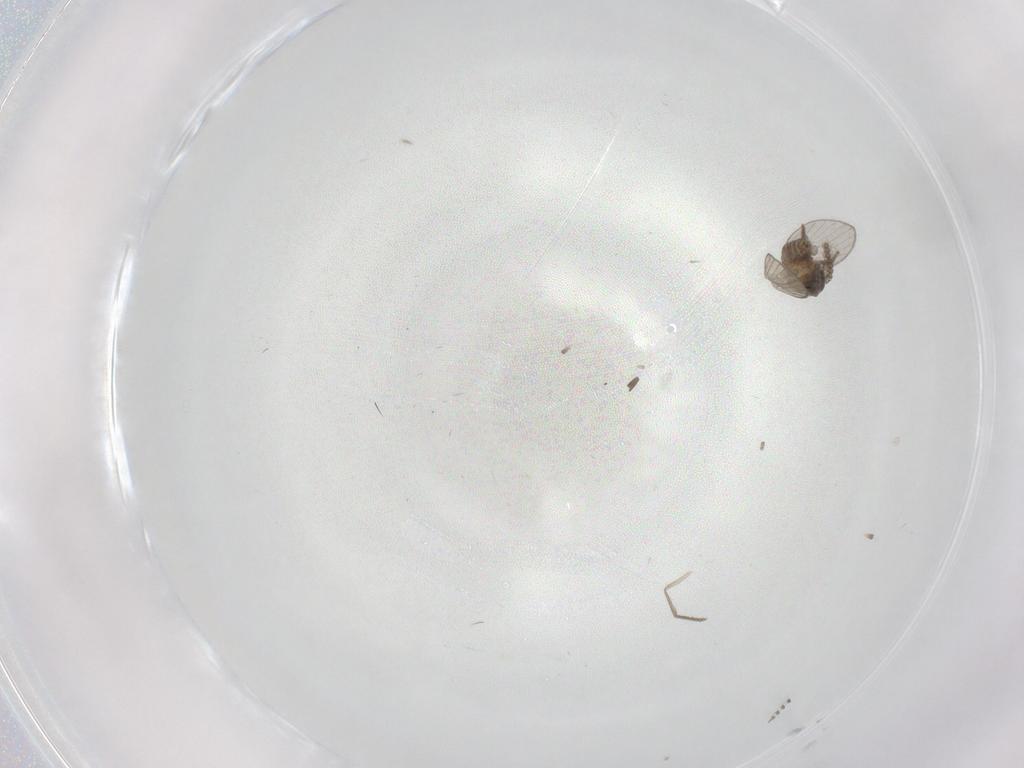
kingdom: Animalia
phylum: Arthropoda
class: Insecta
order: Diptera
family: Psychodidae
